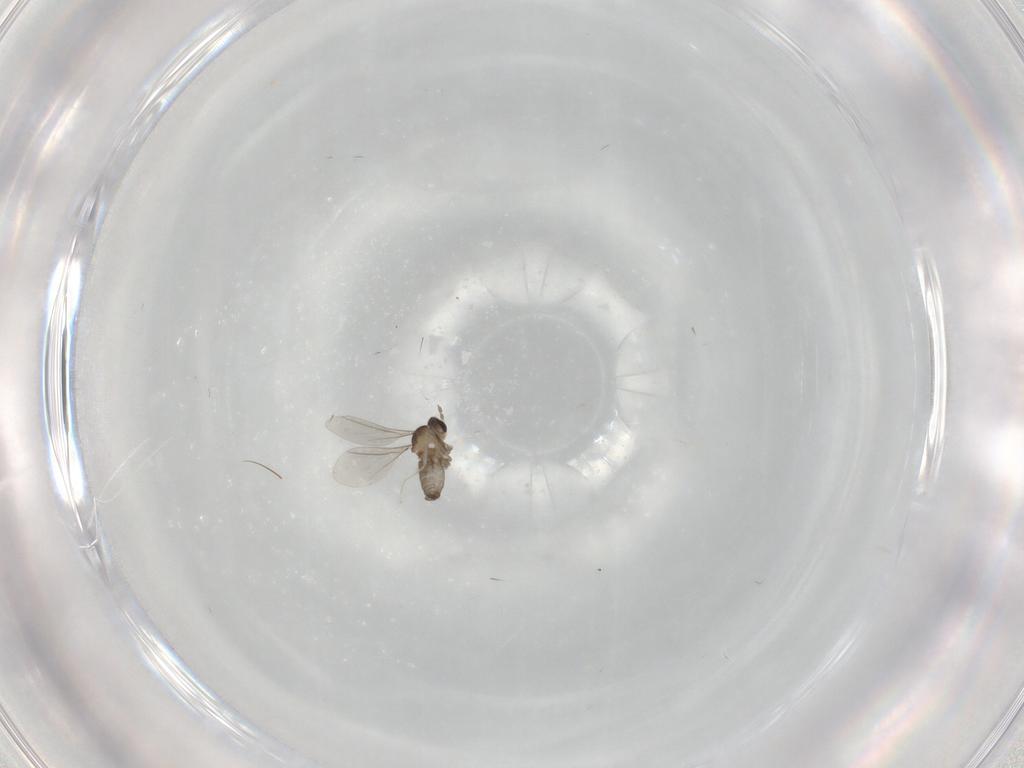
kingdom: Animalia
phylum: Arthropoda
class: Insecta
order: Diptera
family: Cecidomyiidae
